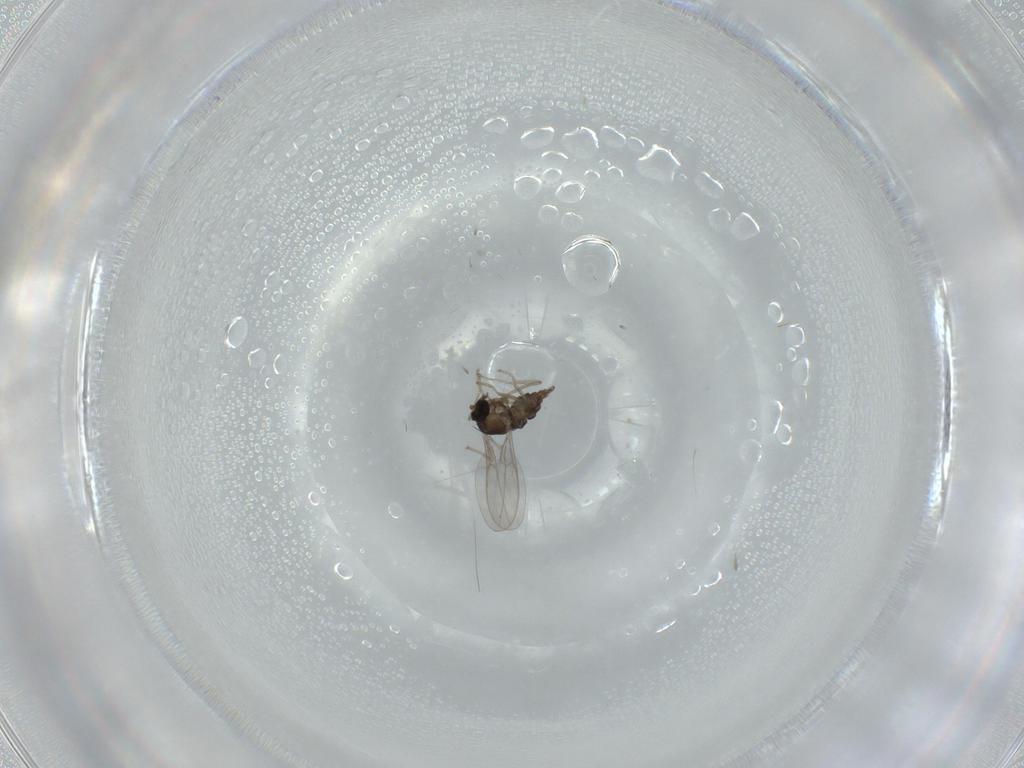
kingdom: Animalia
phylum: Arthropoda
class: Insecta
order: Diptera
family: Cecidomyiidae
